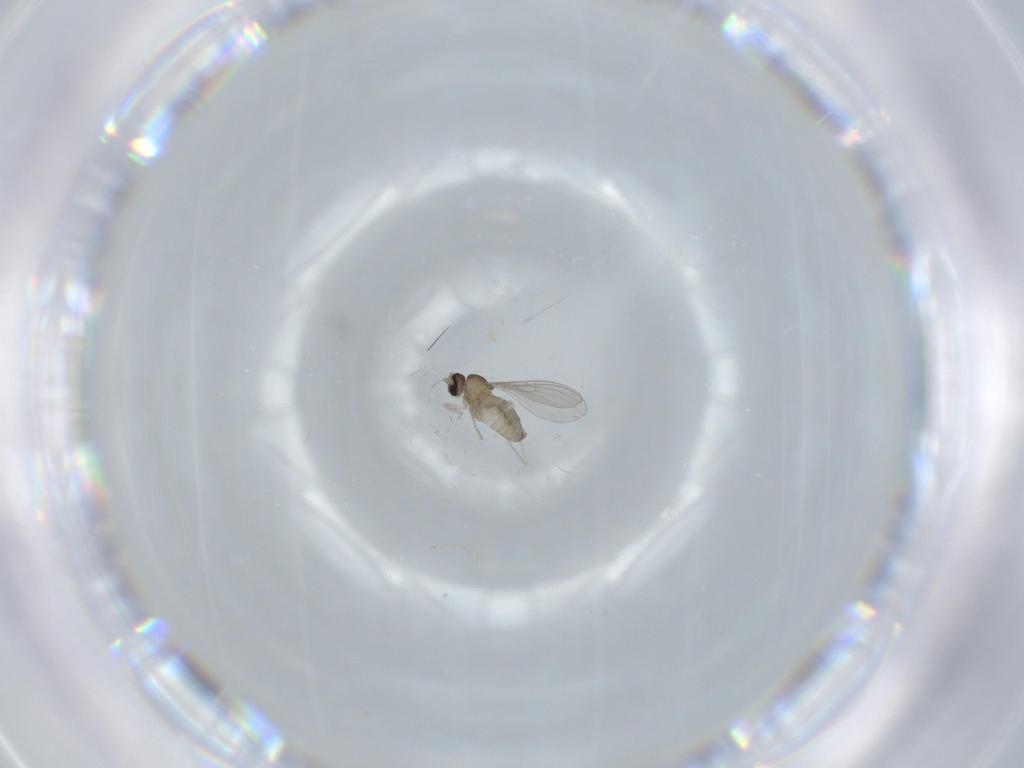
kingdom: Animalia
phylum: Arthropoda
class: Insecta
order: Diptera
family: Cecidomyiidae
